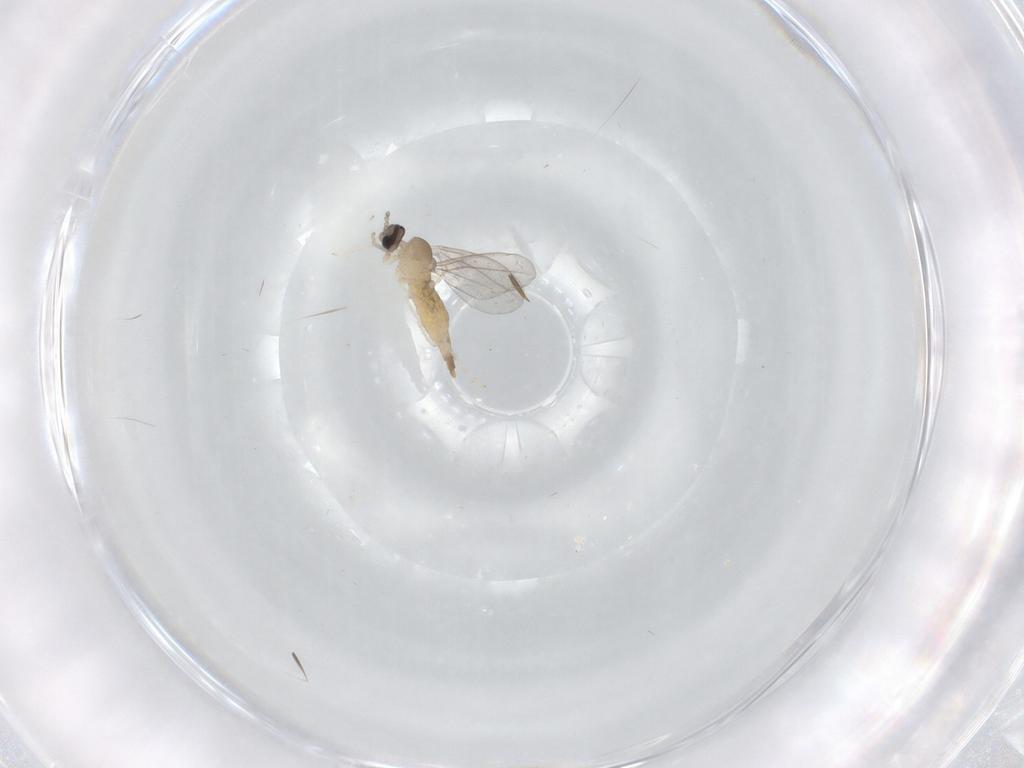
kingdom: Animalia
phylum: Arthropoda
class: Insecta
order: Diptera
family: Cecidomyiidae
